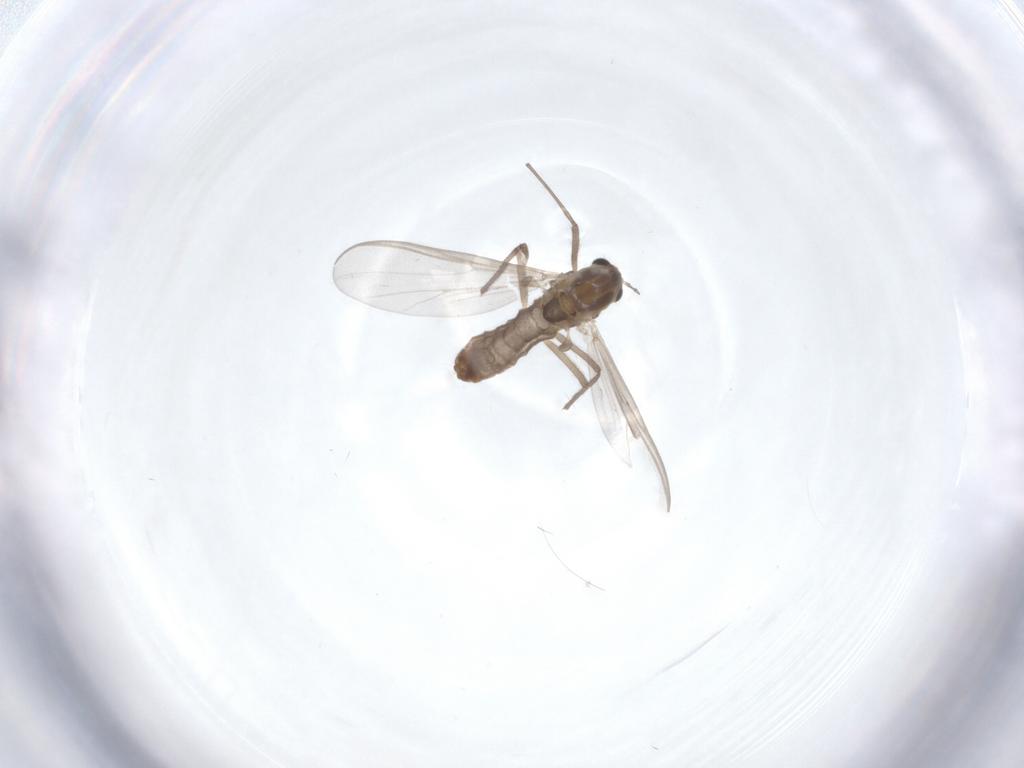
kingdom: Animalia
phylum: Arthropoda
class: Insecta
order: Diptera
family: Chironomidae
